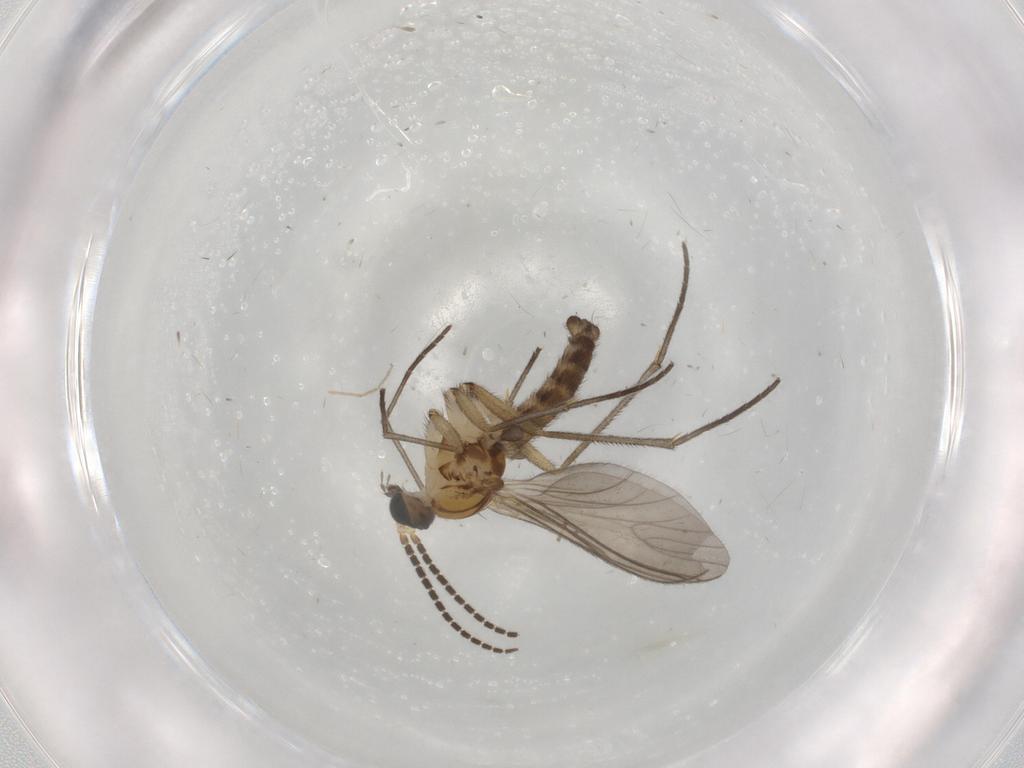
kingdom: Animalia
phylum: Arthropoda
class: Insecta
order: Diptera
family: Sciaridae
